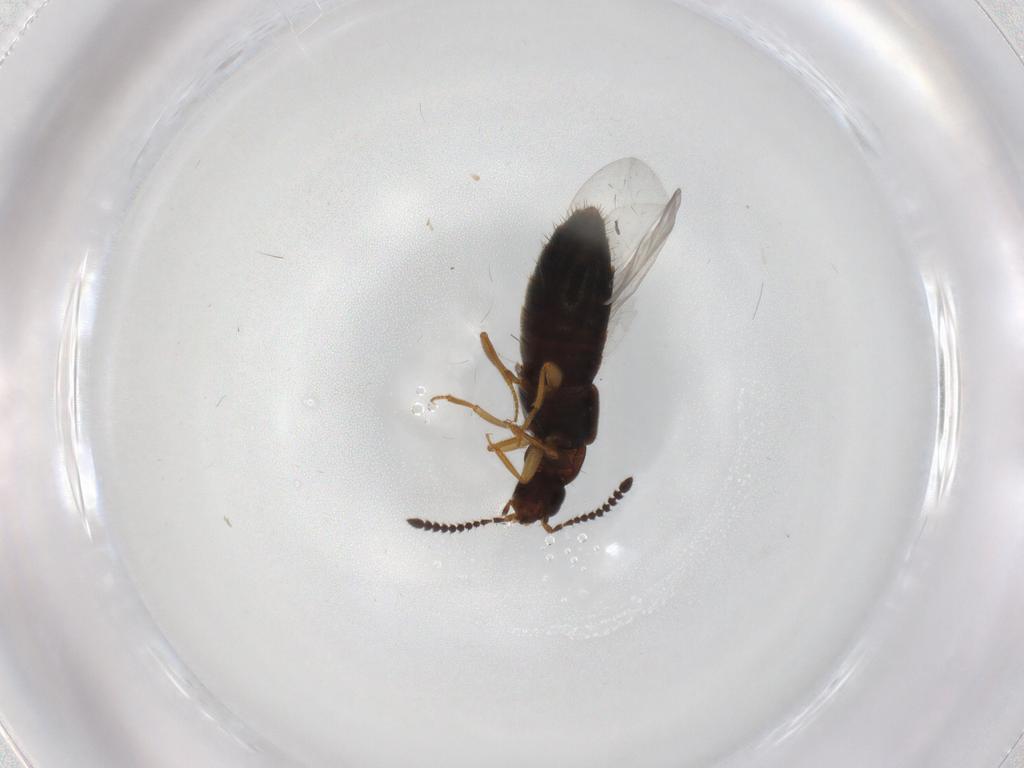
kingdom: Animalia
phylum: Arthropoda
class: Insecta
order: Coleoptera
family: Staphylinidae
